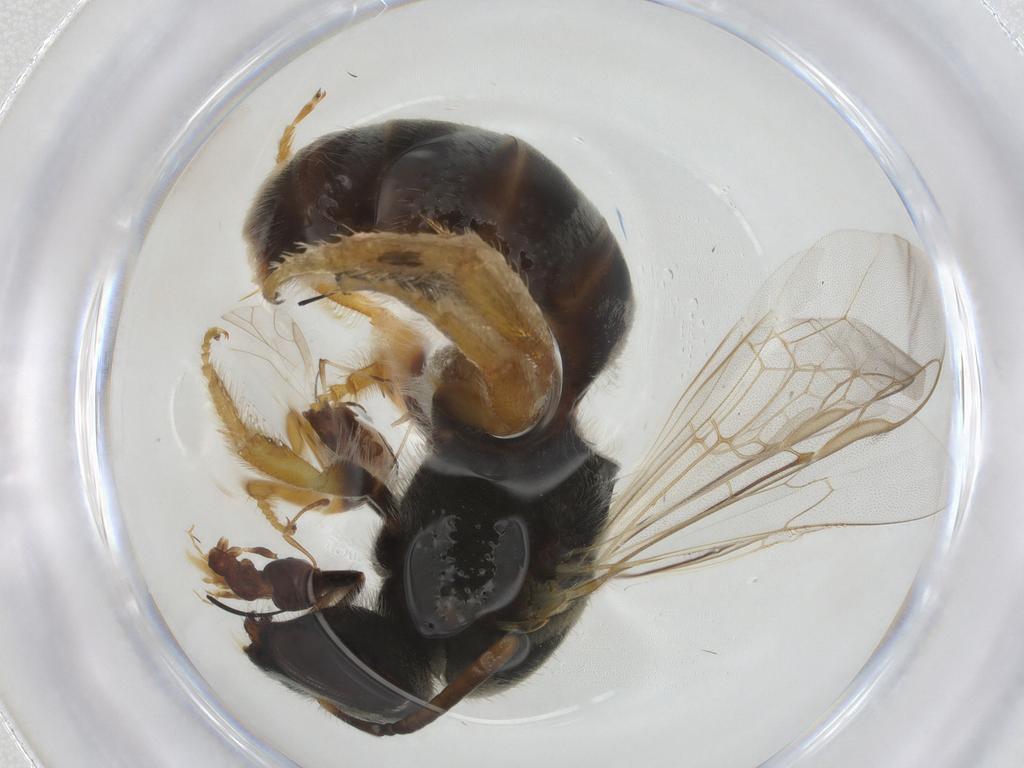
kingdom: Animalia
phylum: Arthropoda
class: Insecta
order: Hymenoptera
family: Halictidae
